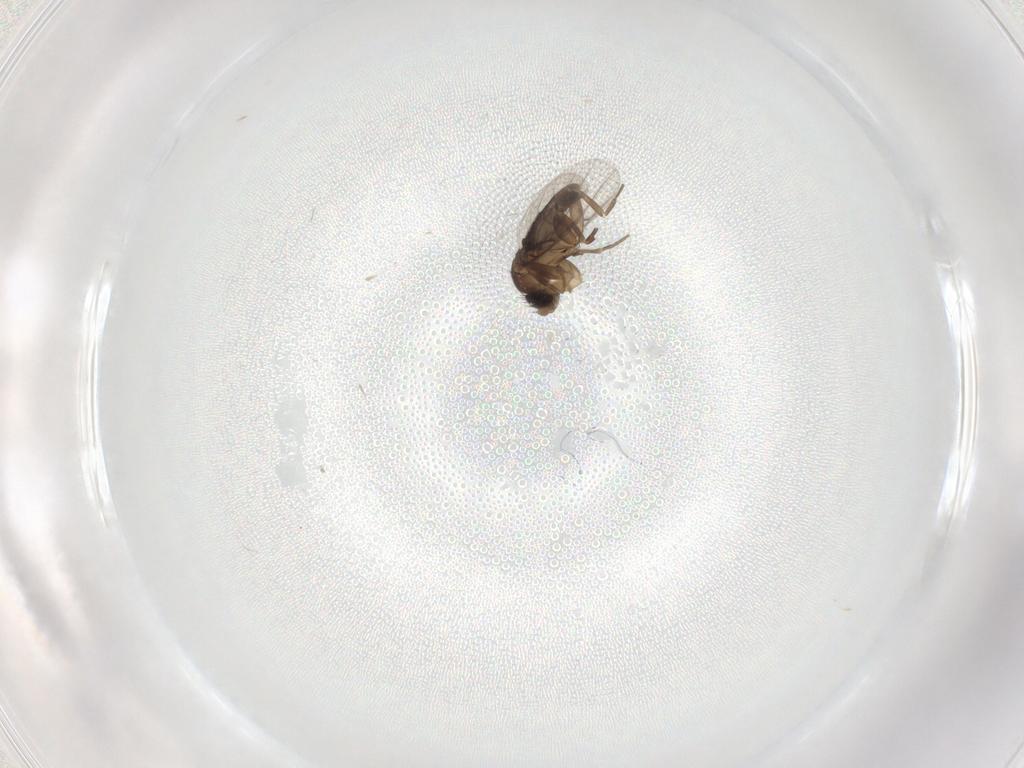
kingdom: Animalia
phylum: Arthropoda
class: Insecta
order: Diptera
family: Phoridae
